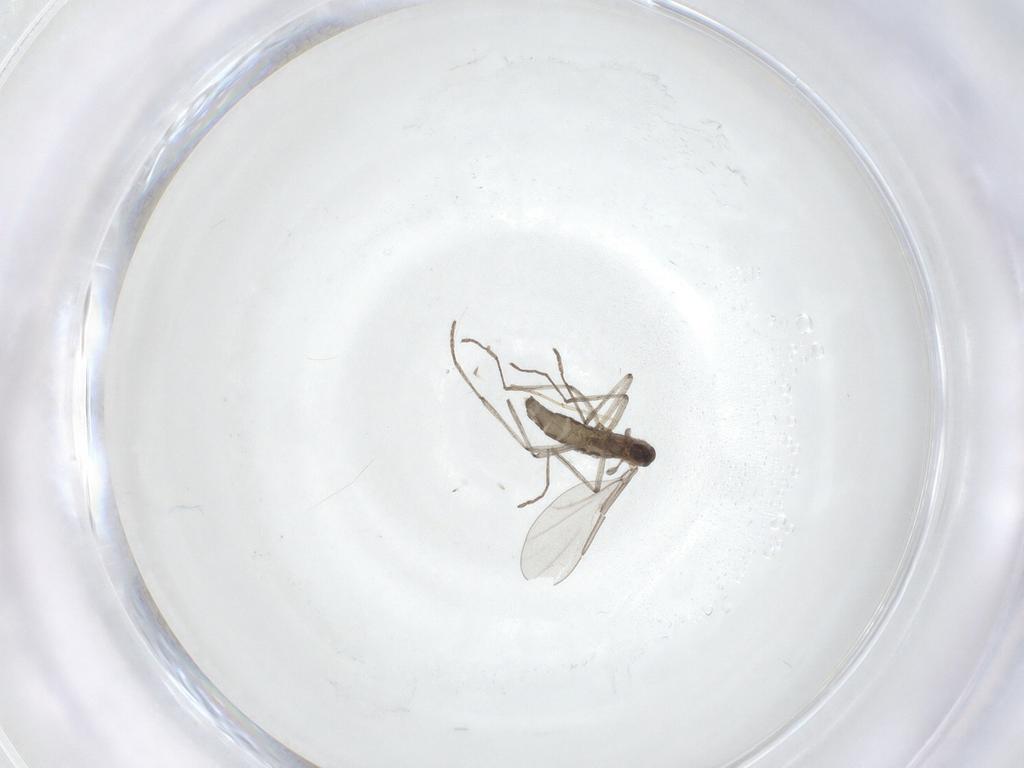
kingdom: Animalia
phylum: Arthropoda
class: Insecta
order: Diptera
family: Cecidomyiidae
